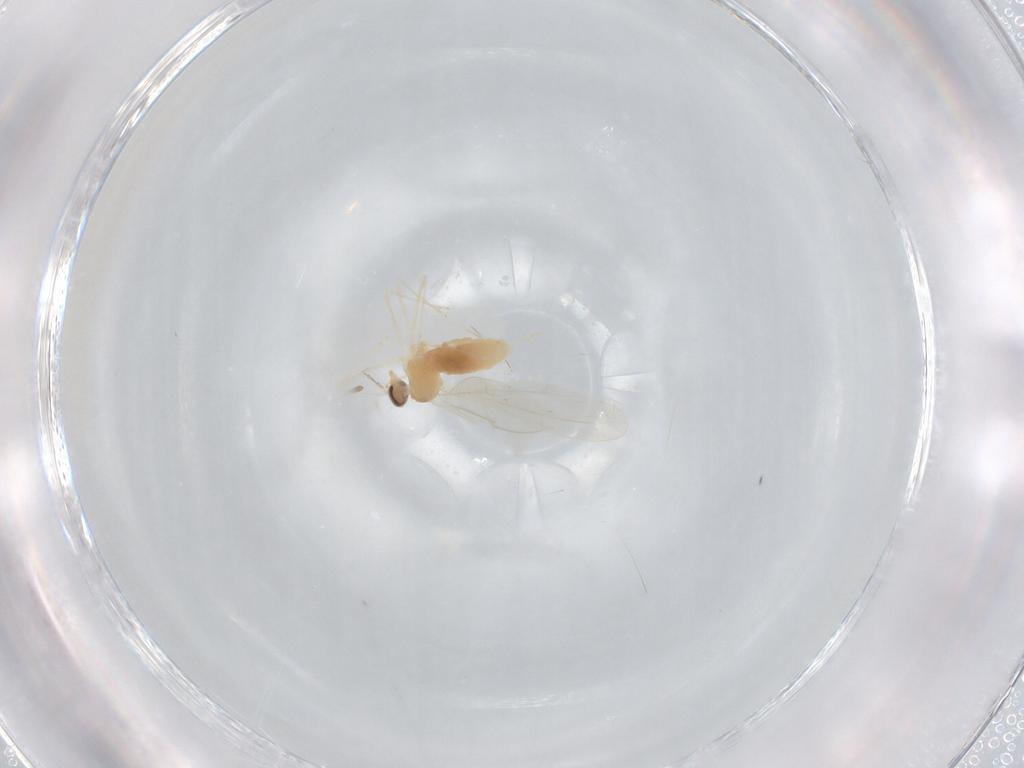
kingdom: Animalia
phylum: Arthropoda
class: Insecta
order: Diptera
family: Cecidomyiidae
